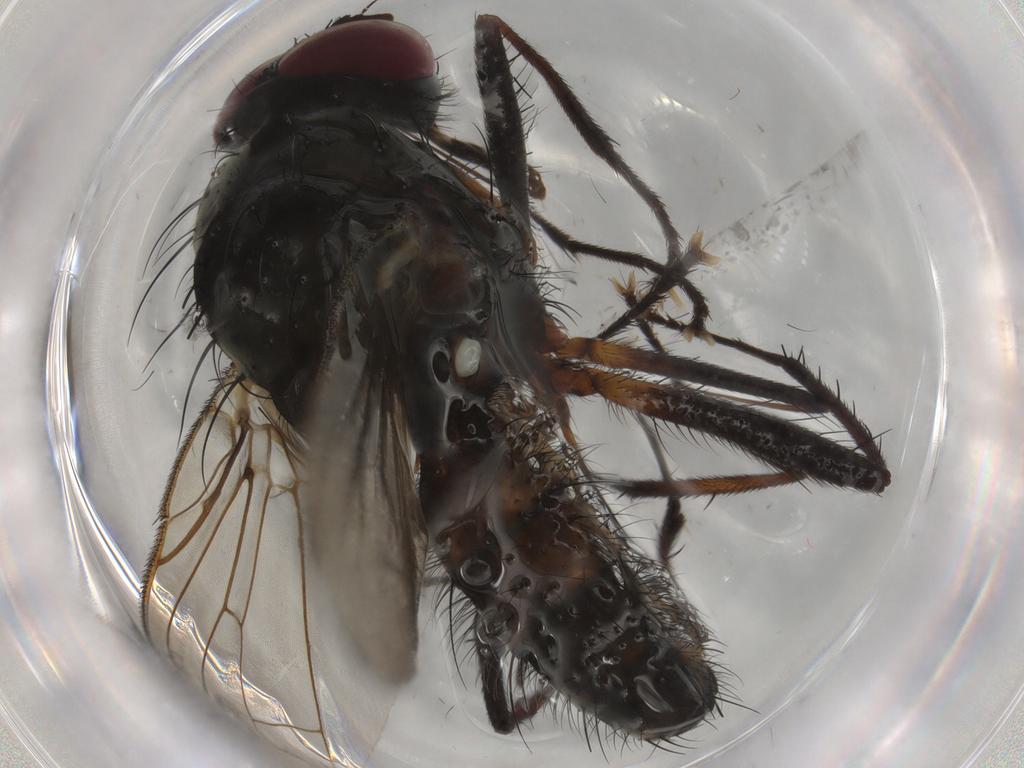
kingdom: Animalia
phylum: Arthropoda
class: Insecta
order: Diptera
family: Anthomyiidae
